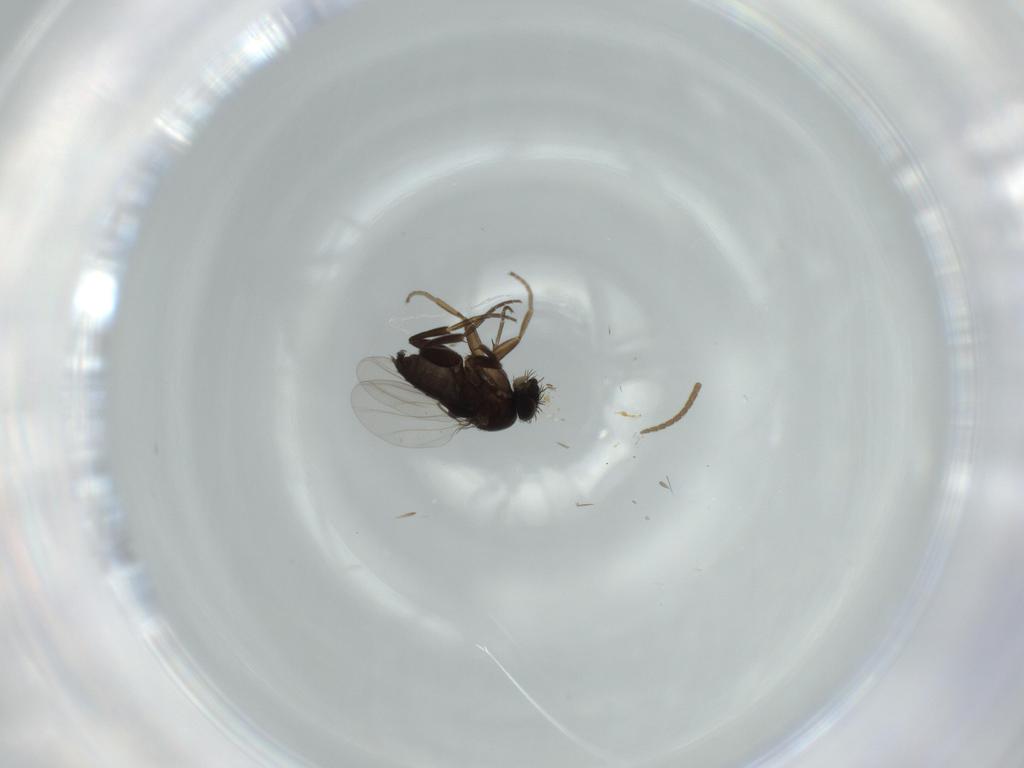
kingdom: Animalia
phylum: Arthropoda
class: Insecta
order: Diptera
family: Phoridae
